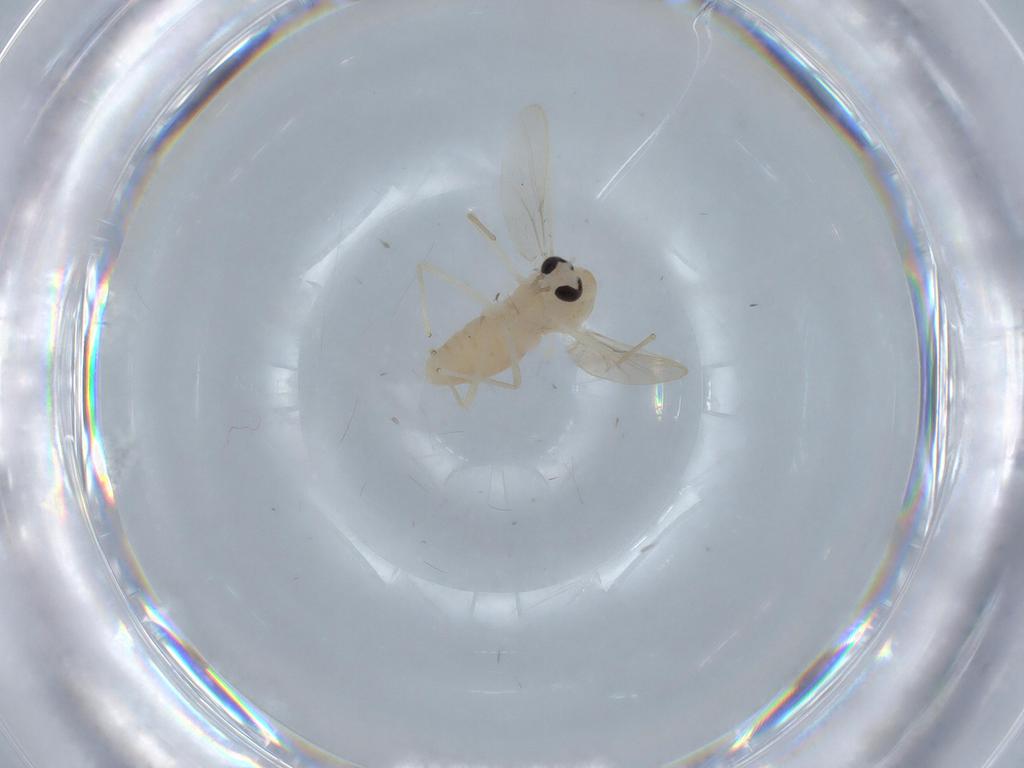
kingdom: Animalia
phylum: Arthropoda
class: Insecta
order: Diptera
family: Chironomidae
